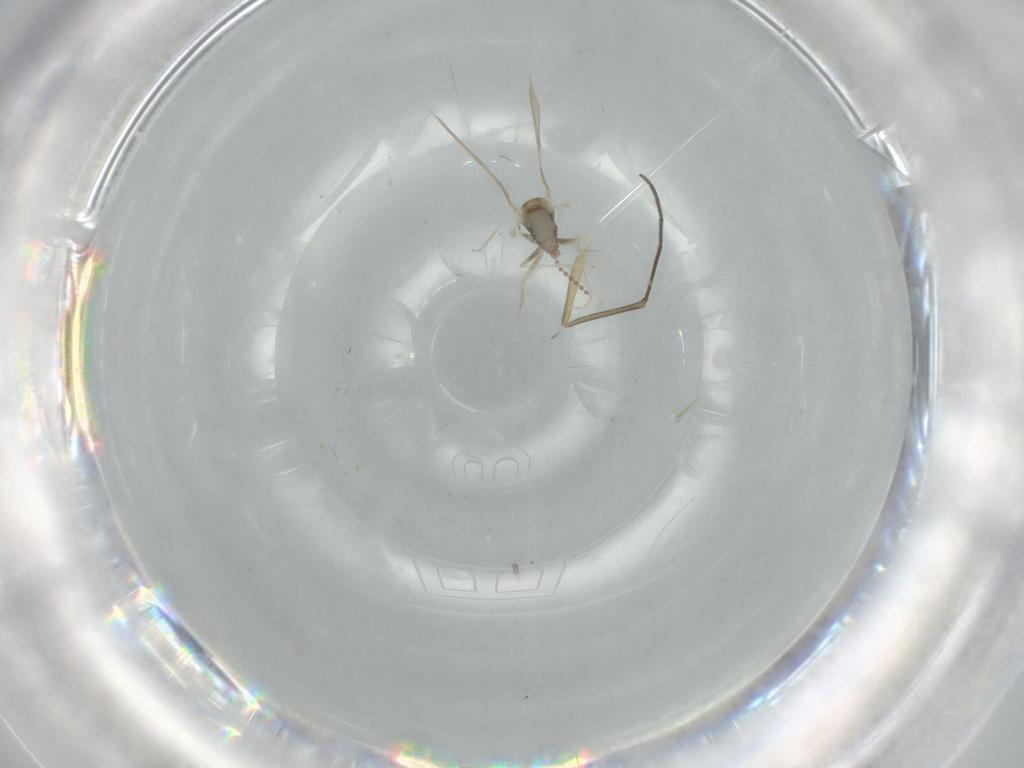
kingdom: Animalia
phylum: Arthropoda
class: Insecta
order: Diptera
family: Cecidomyiidae
